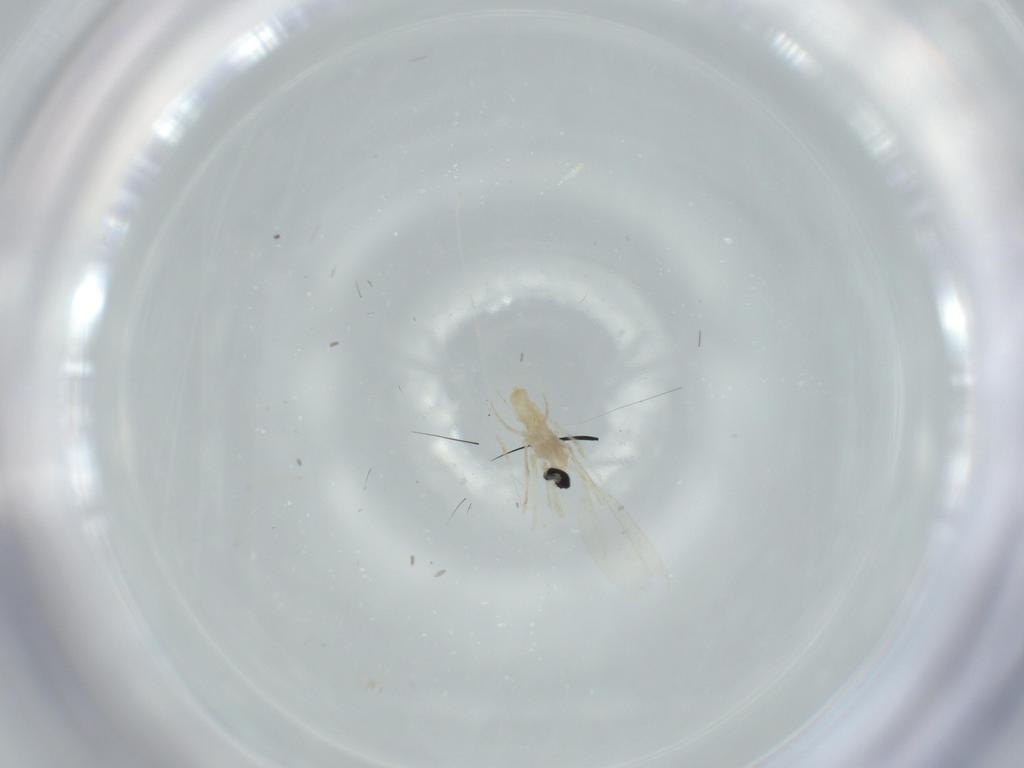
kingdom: Animalia
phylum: Arthropoda
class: Insecta
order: Diptera
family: Cecidomyiidae
